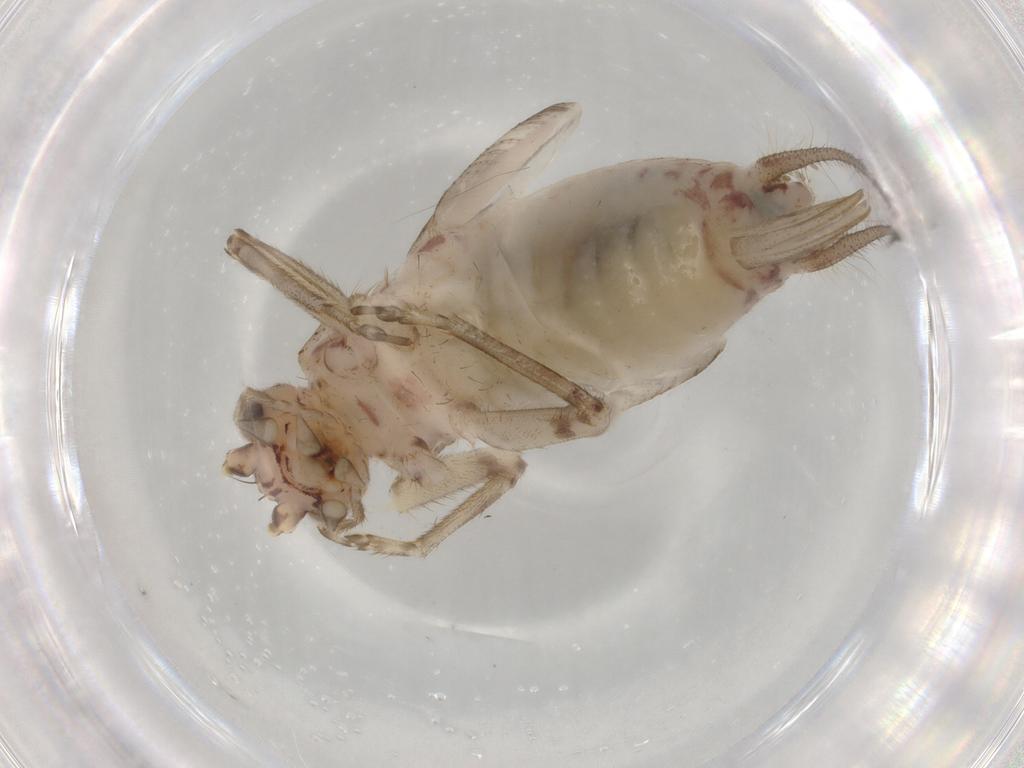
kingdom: Animalia
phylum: Arthropoda
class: Insecta
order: Orthoptera
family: Trigonidiidae
